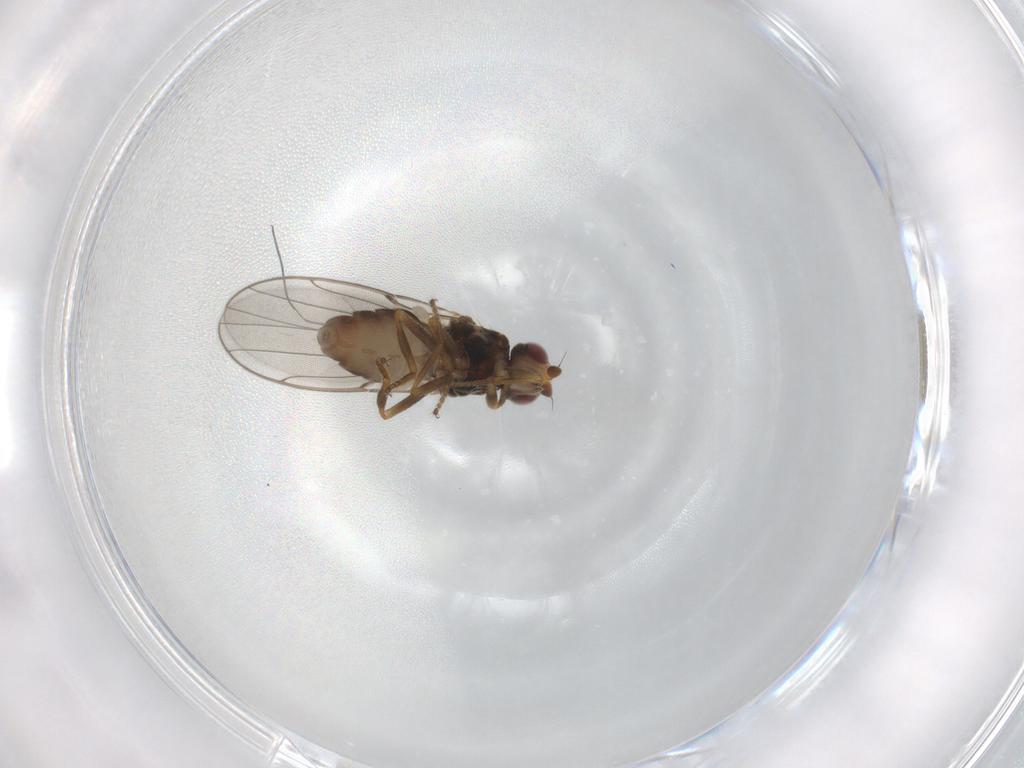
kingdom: Animalia
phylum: Arthropoda
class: Insecta
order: Diptera
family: Chloropidae
